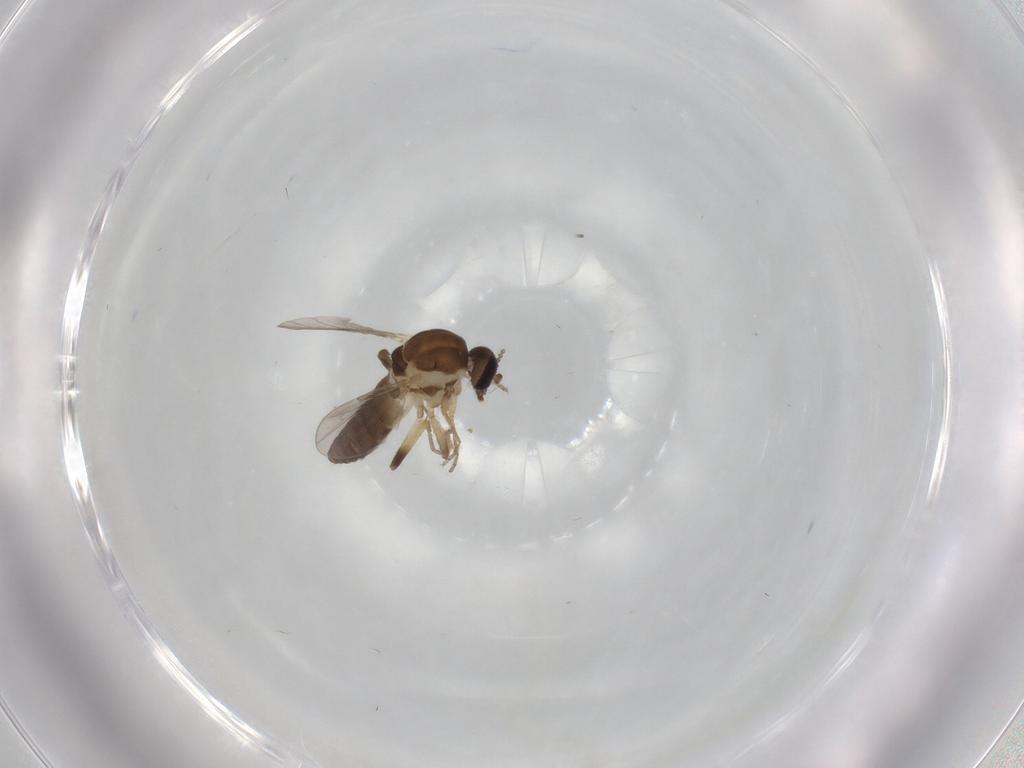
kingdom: Animalia
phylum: Arthropoda
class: Insecta
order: Diptera
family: Ceratopogonidae
